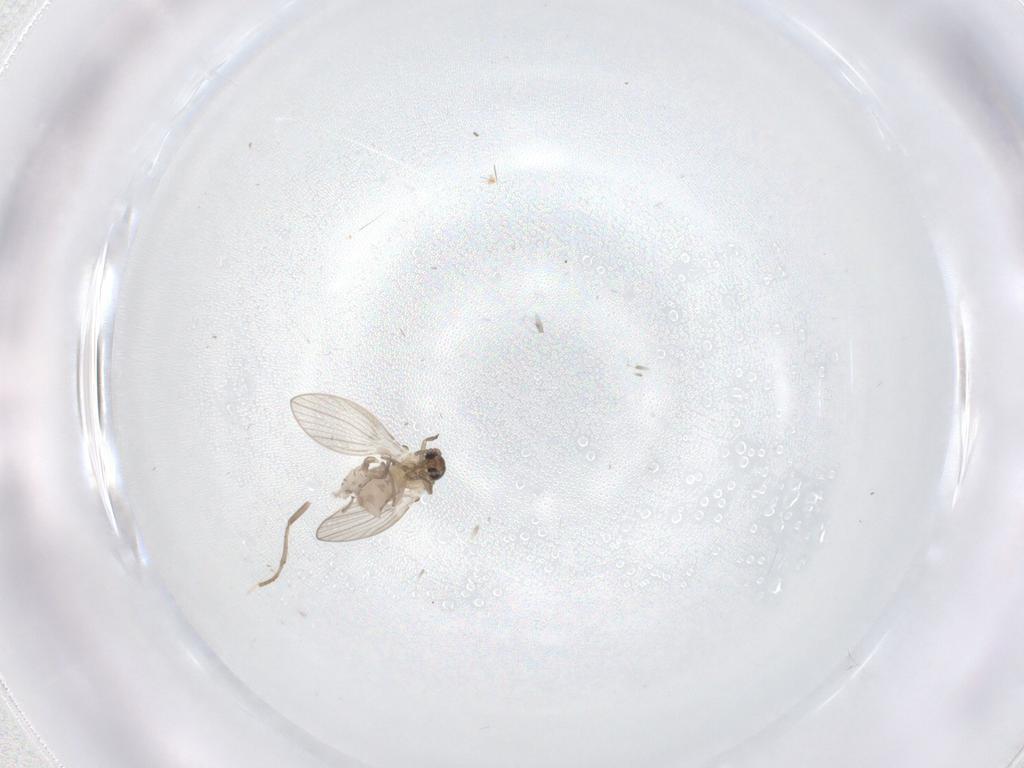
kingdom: Animalia
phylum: Arthropoda
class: Insecta
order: Diptera
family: Psychodidae
